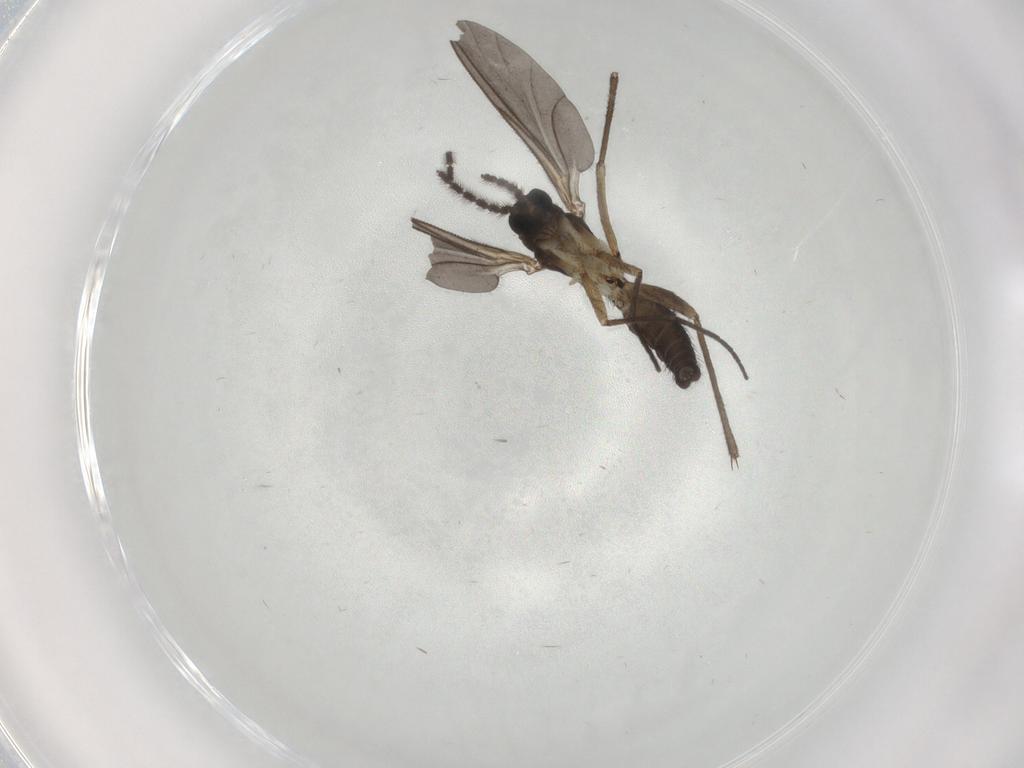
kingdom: Animalia
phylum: Arthropoda
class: Insecta
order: Diptera
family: Sciaridae
